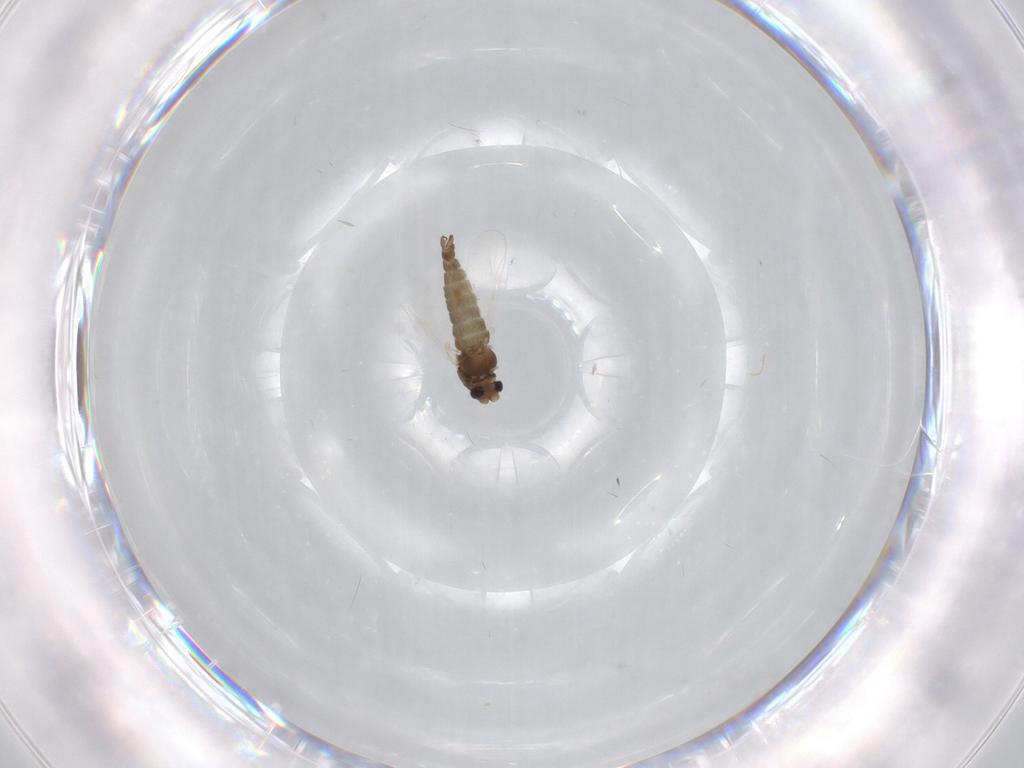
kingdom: Animalia
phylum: Arthropoda
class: Insecta
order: Diptera
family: Chironomidae
